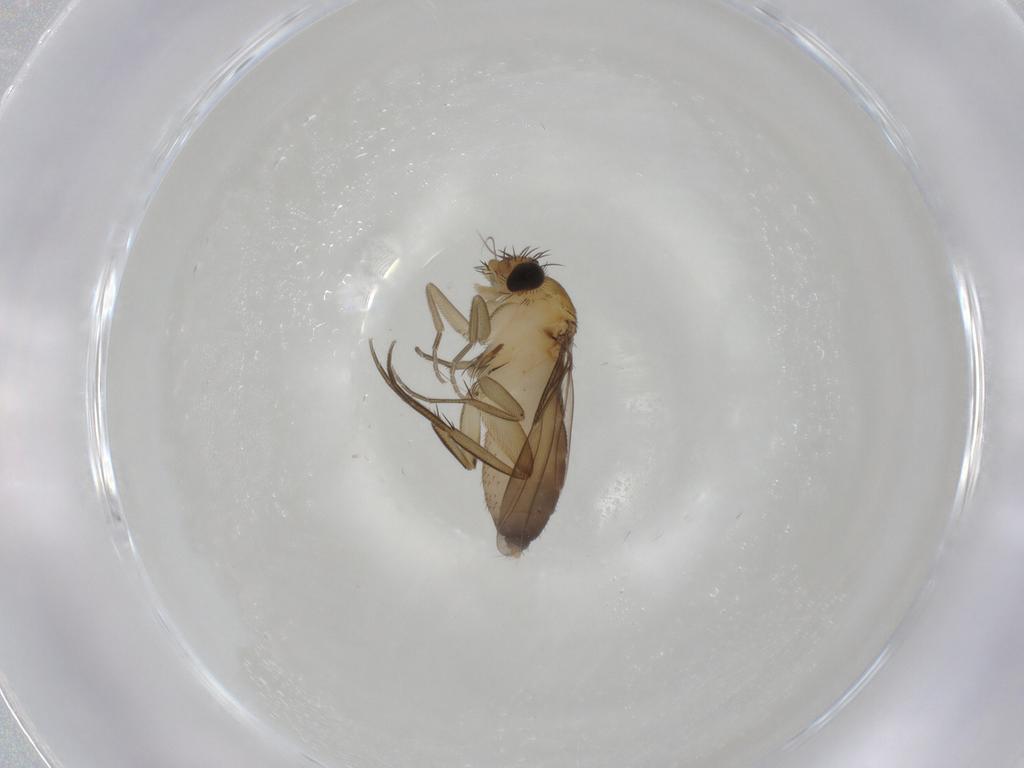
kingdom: Animalia
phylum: Arthropoda
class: Insecta
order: Diptera
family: Phoridae
